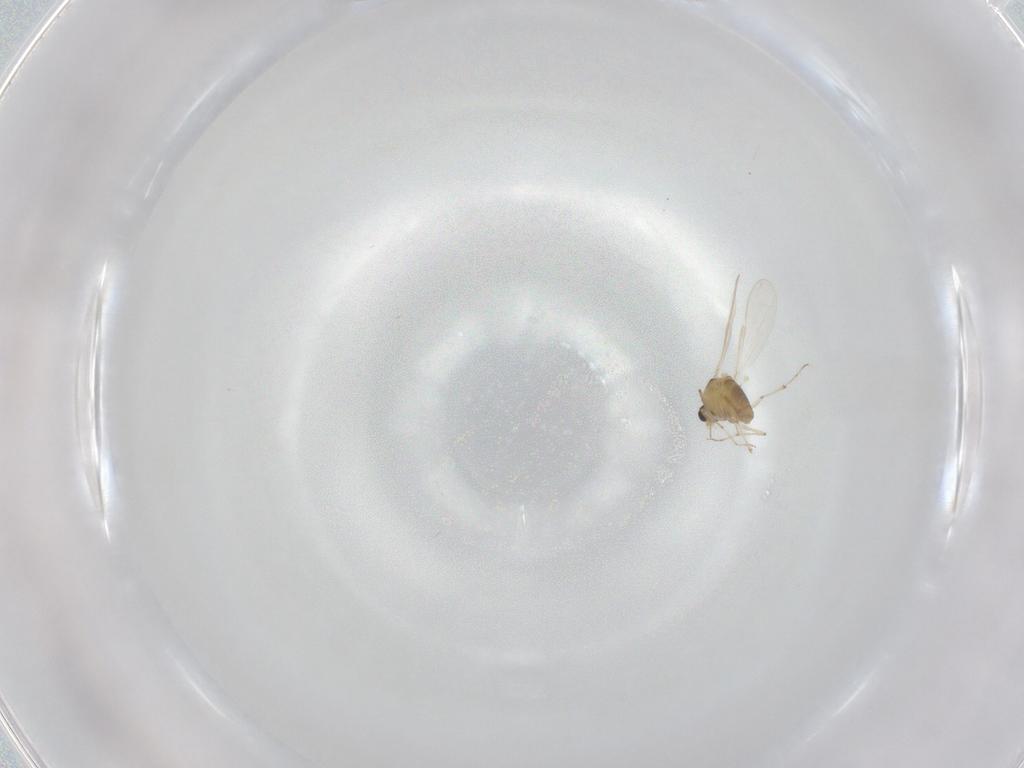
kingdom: Animalia
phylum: Arthropoda
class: Insecta
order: Diptera
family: Chironomidae
